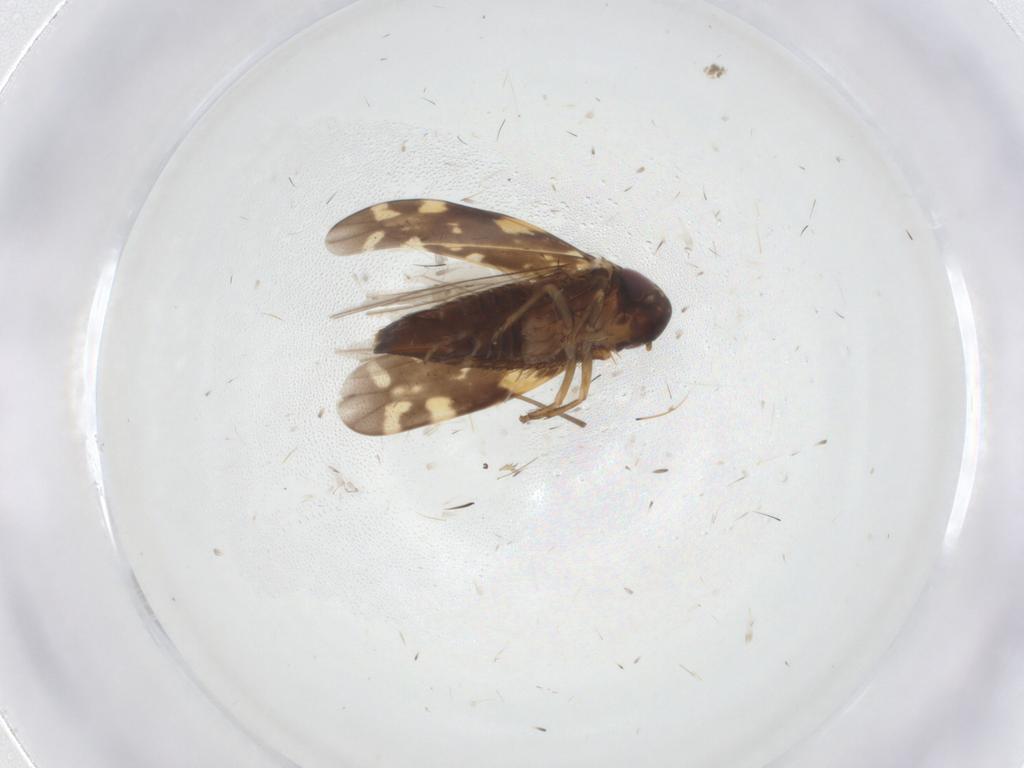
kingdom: Animalia
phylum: Arthropoda
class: Insecta
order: Hemiptera
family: Cicadellidae
